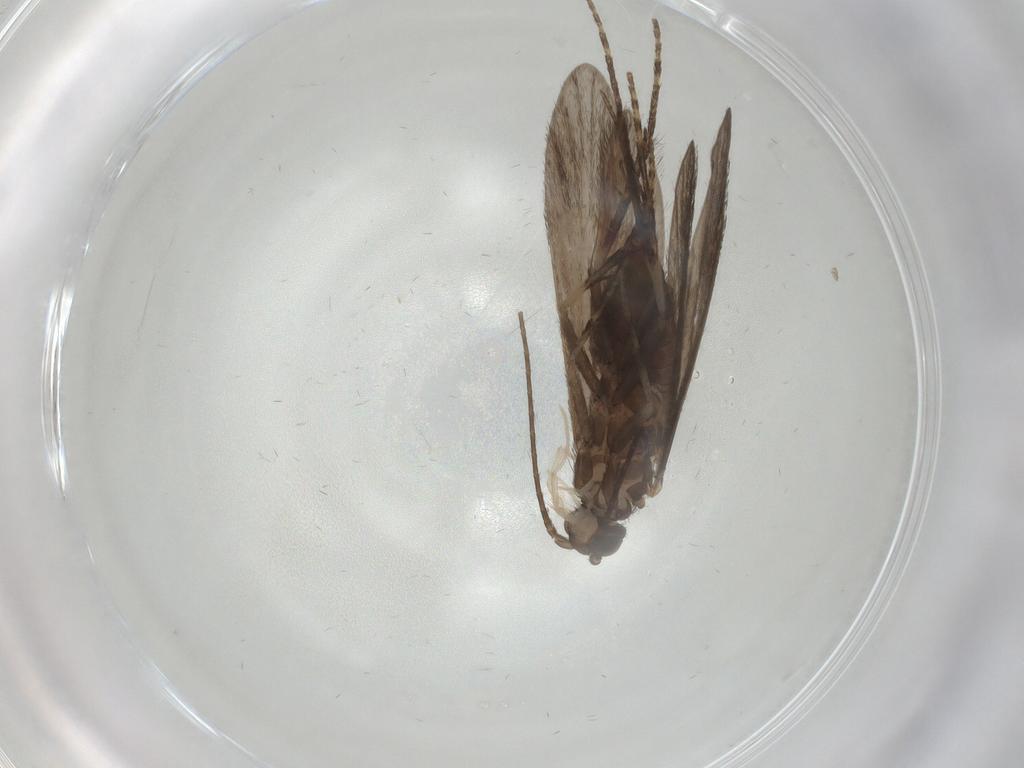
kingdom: Animalia
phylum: Arthropoda
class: Insecta
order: Trichoptera
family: Xiphocentronidae
